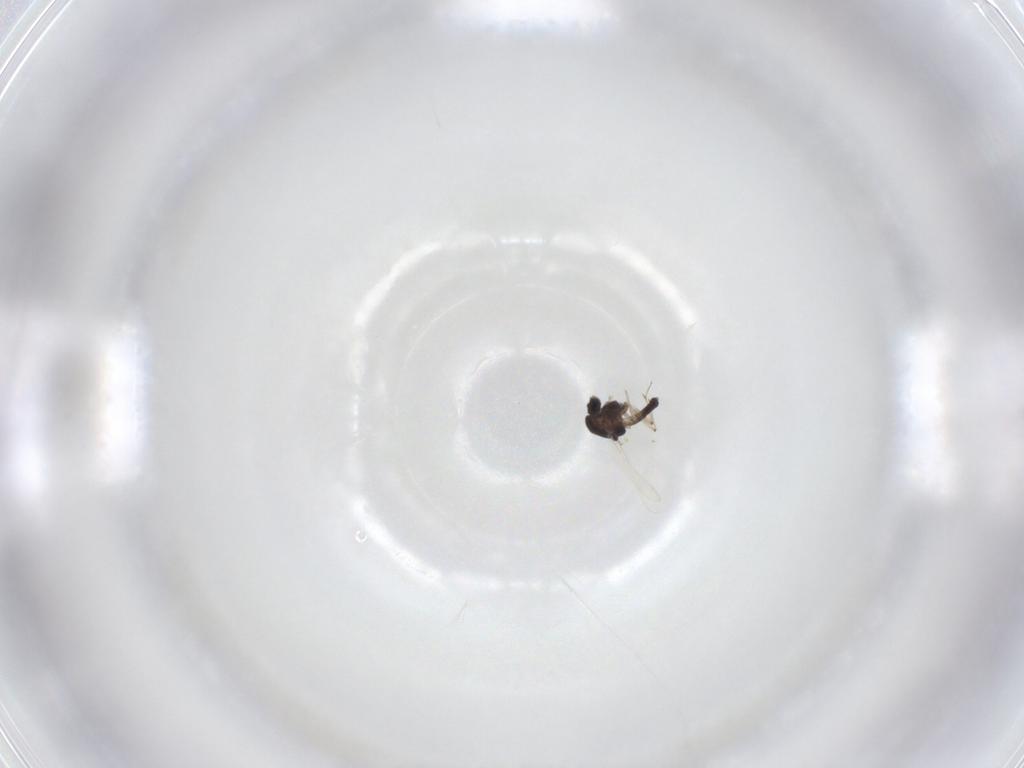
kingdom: Animalia
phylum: Arthropoda
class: Insecta
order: Diptera
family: Chironomidae
